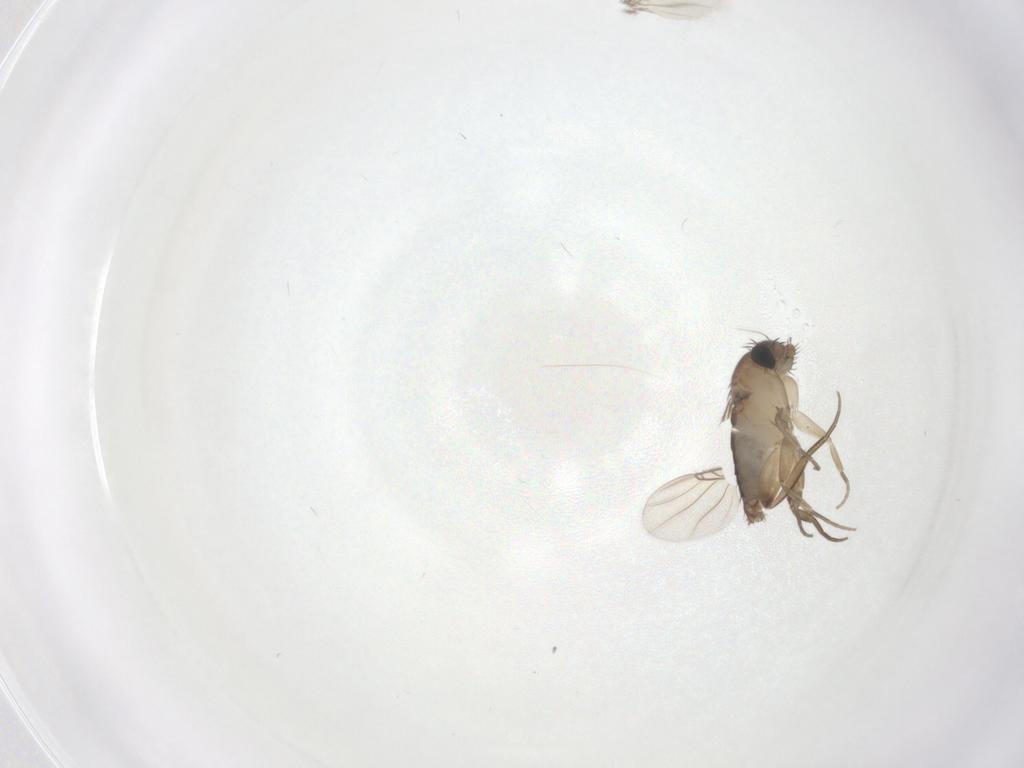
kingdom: Animalia
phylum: Arthropoda
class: Insecta
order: Diptera
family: Phoridae
